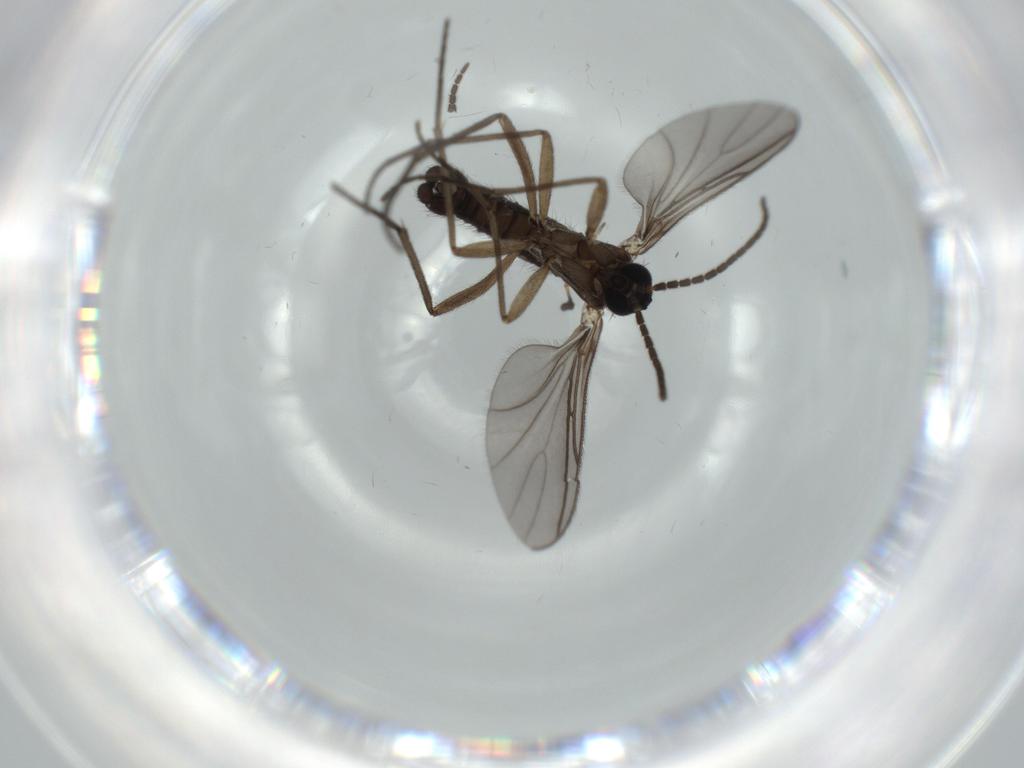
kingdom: Animalia
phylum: Arthropoda
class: Insecta
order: Diptera
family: Sciaridae
